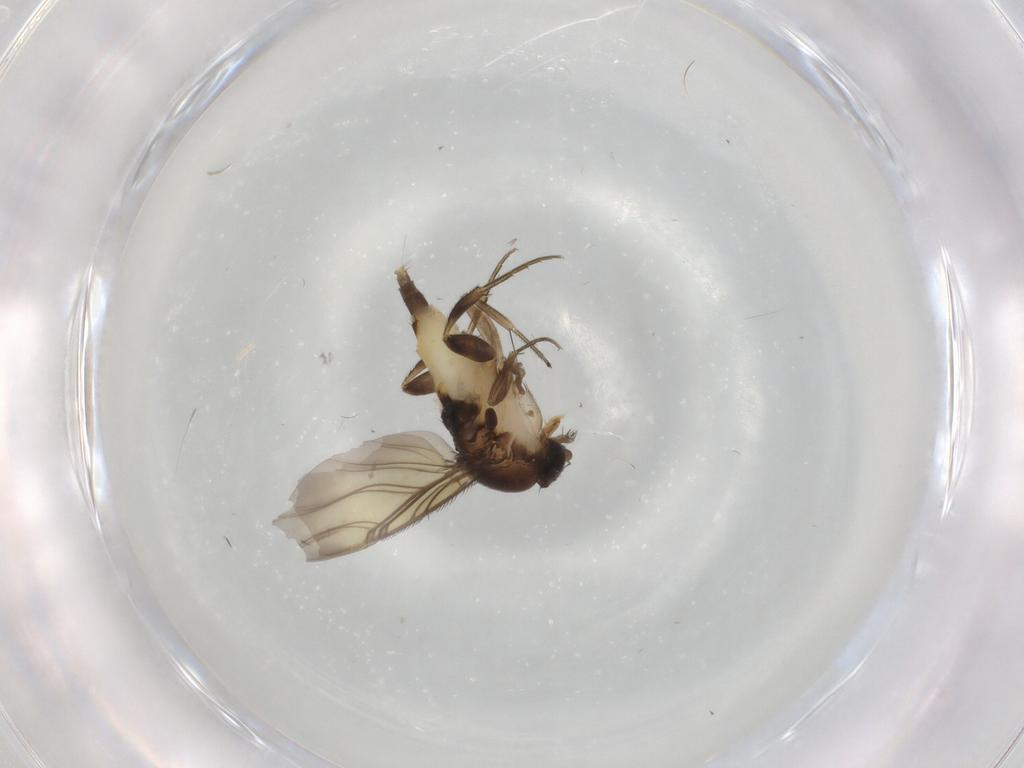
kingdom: Animalia
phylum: Arthropoda
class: Insecta
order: Diptera
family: Phoridae
